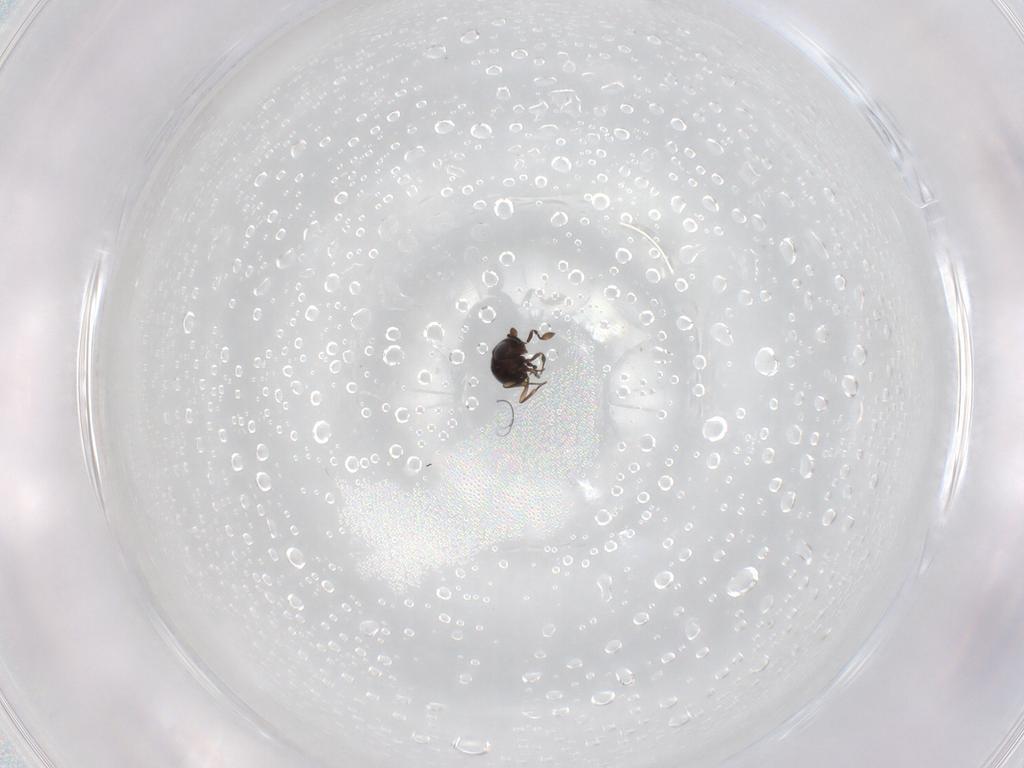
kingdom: Animalia
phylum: Arthropoda
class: Insecta
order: Hymenoptera
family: Scelionidae
